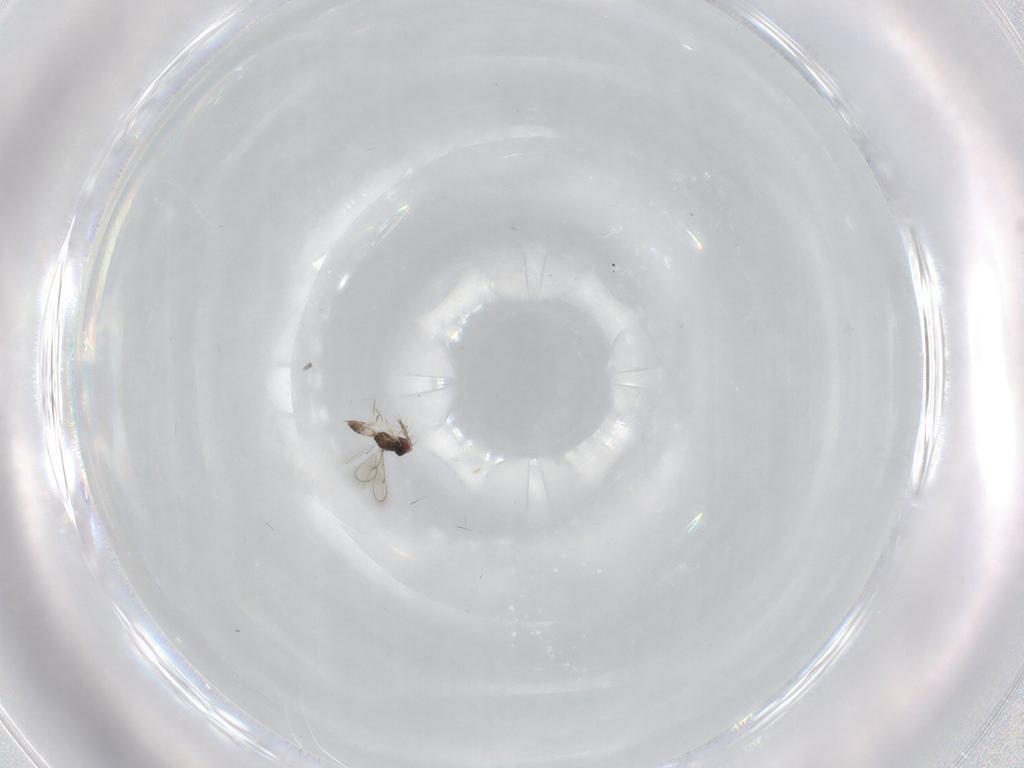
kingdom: Animalia
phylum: Arthropoda
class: Insecta
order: Hymenoptera
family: Eulophidae
